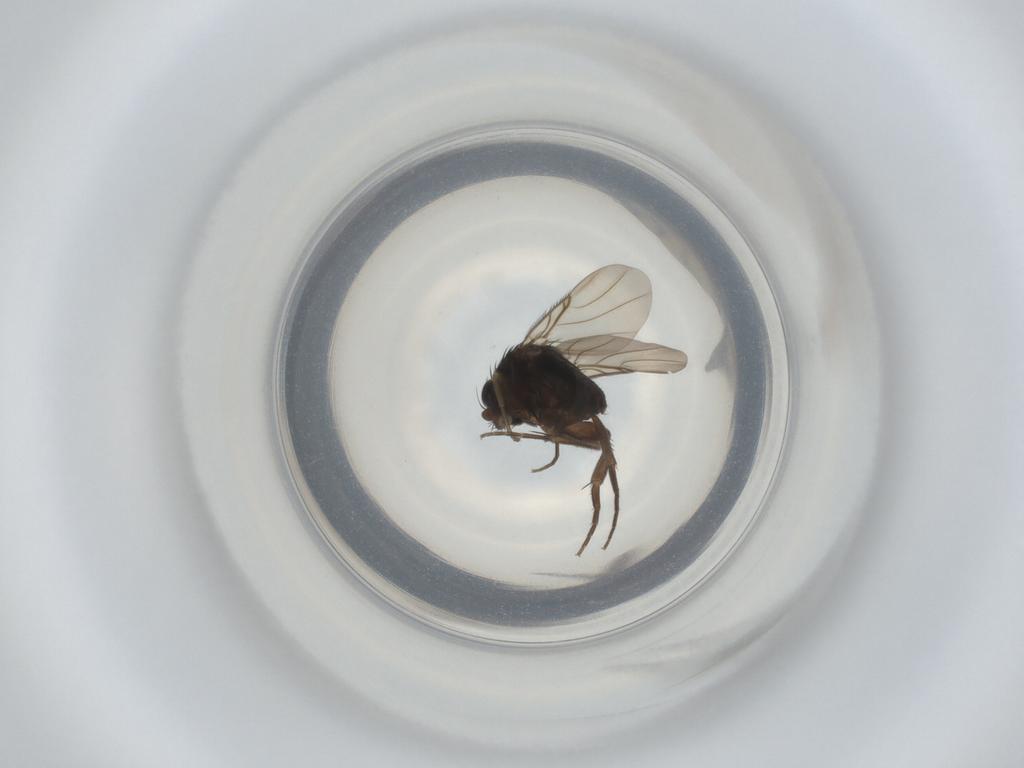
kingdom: Animalia
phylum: Arthropoda
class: Insecta
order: Diptera
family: Phoridae
